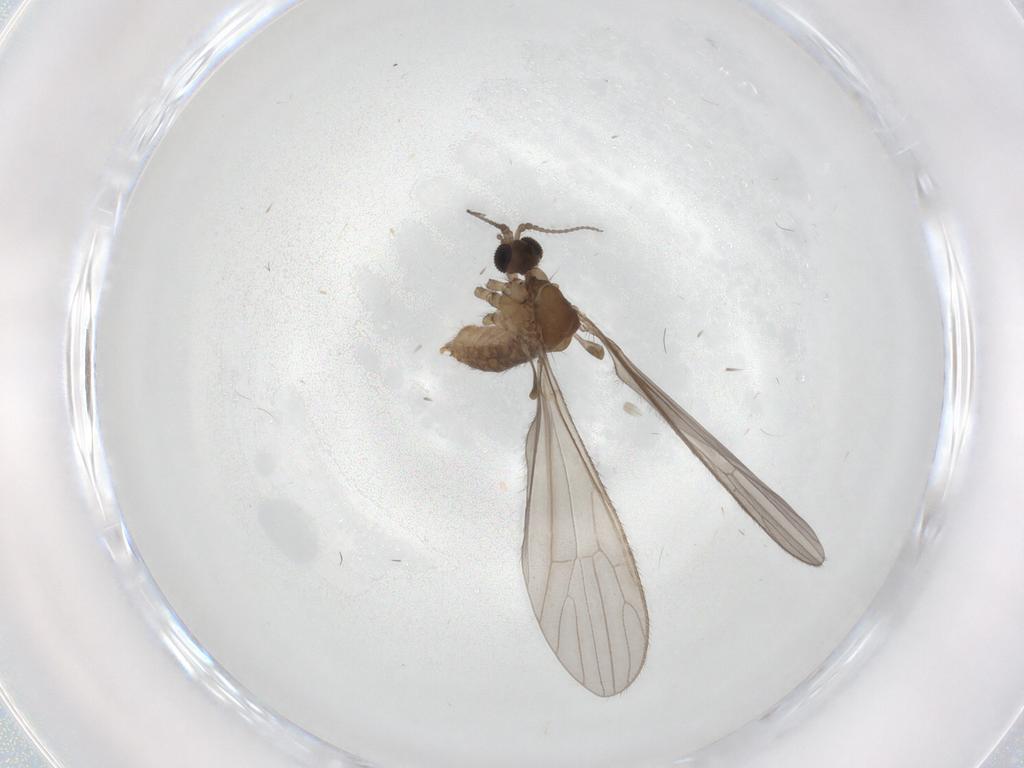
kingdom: Animalia
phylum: Arthropoda
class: Insecta
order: Diptera
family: Limoniidae
